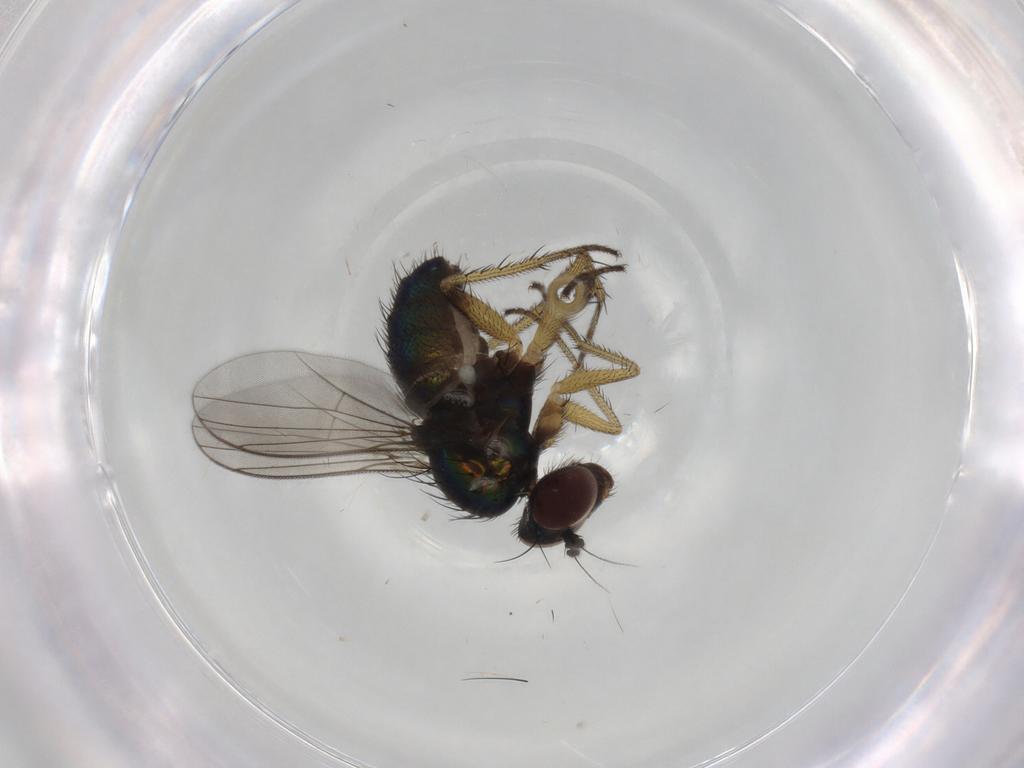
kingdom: Animalia
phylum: Arthropoda
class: Insecta
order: Diptera
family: Dolichopodidae
